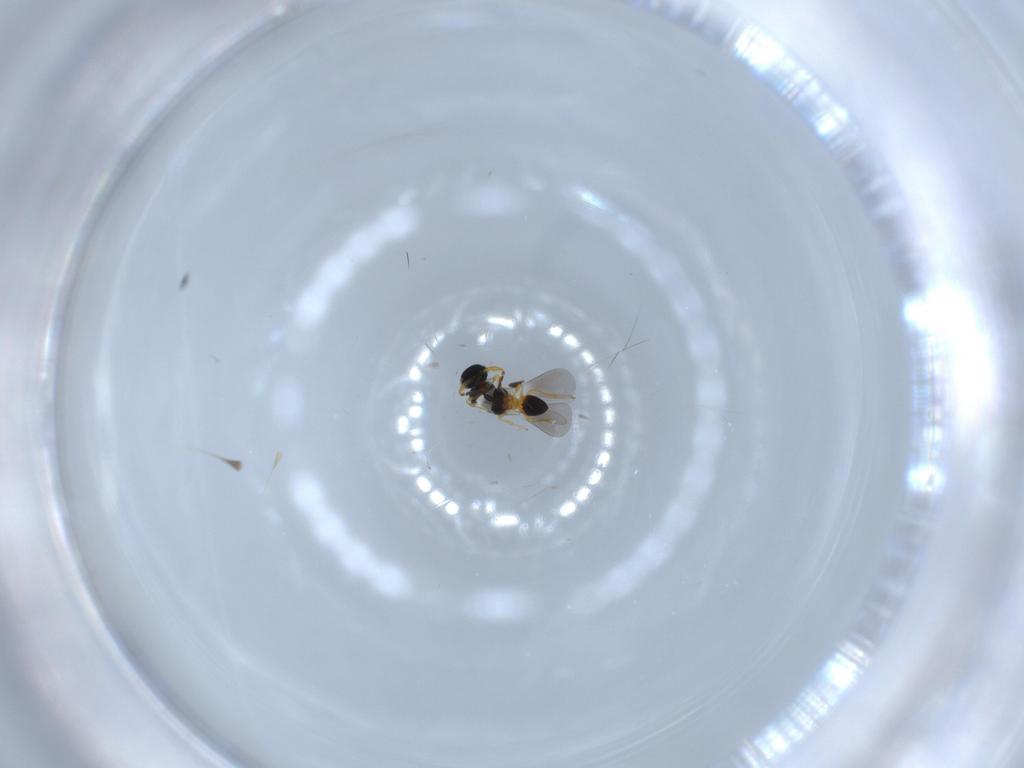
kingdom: Animalia
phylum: Arthropoda
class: Insecta
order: Hymenoptera
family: Platygastridae
